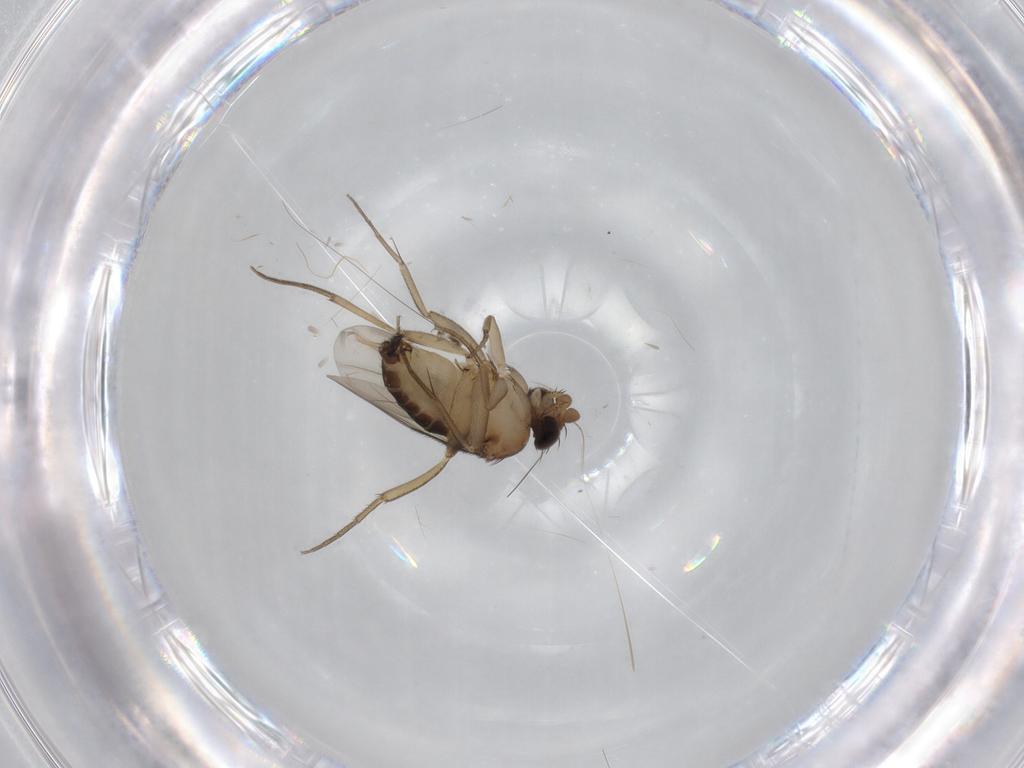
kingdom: Animalia
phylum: Arthropoda
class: Insecta
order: Diptera
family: Phoridae
